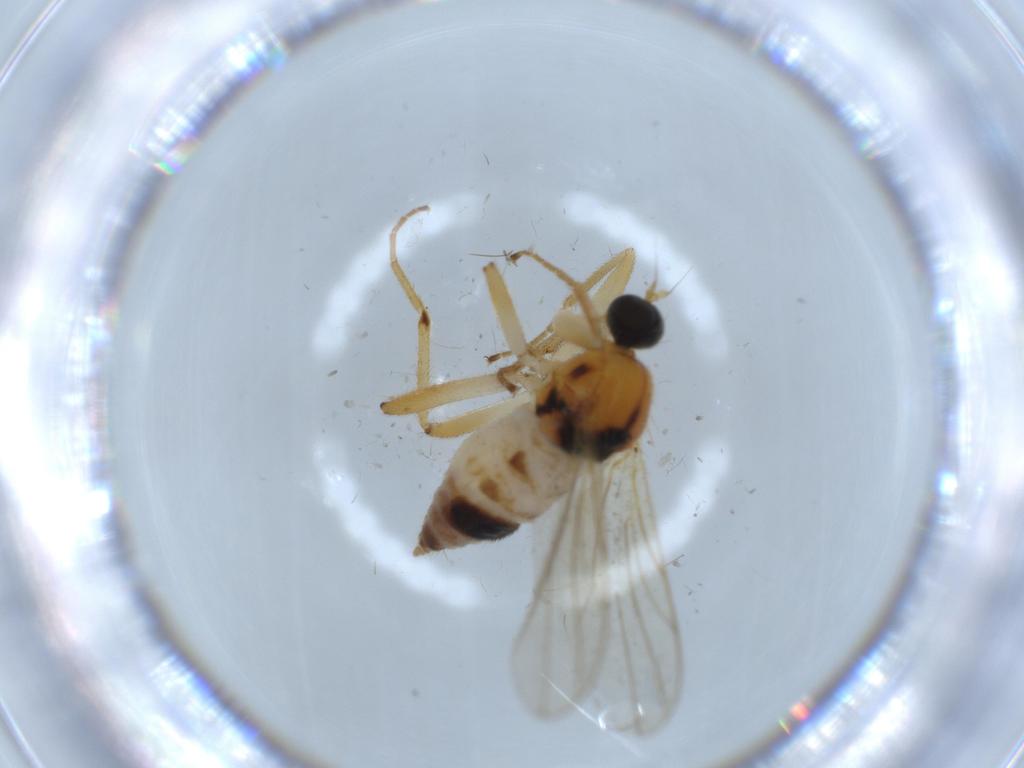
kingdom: Animalia
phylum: Arthropoda
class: Insecta
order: Diptera
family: Hybotidae
